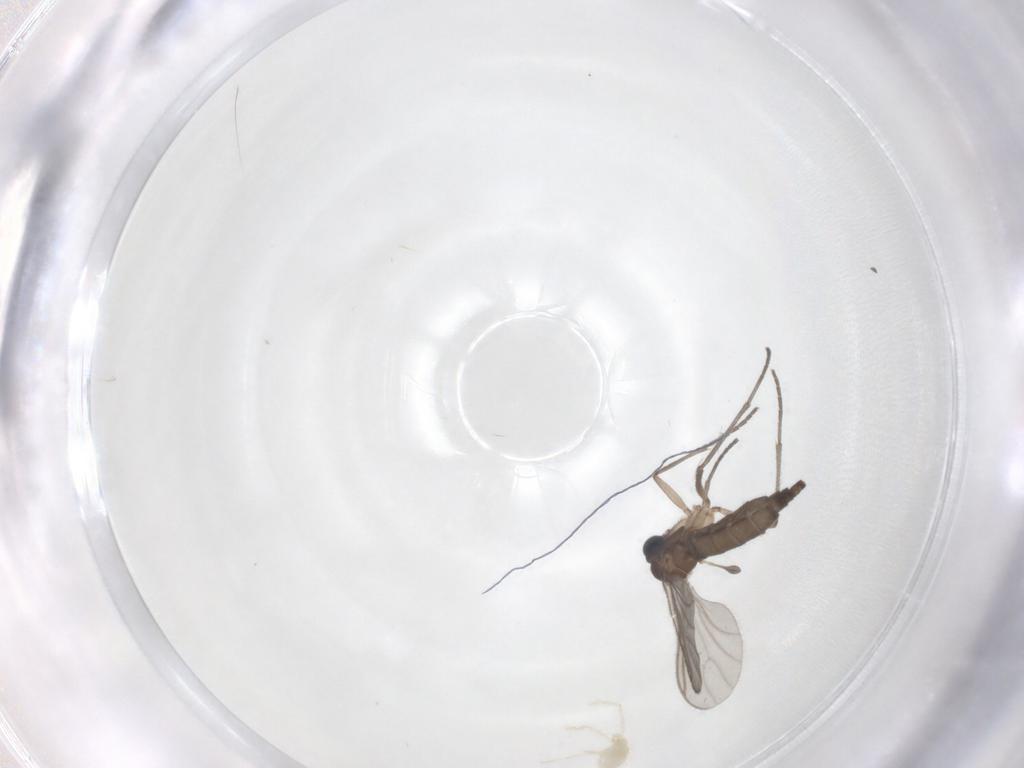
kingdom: Animalia
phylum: Arthropoda
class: Insecta
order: Diptera
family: Sciaridae
